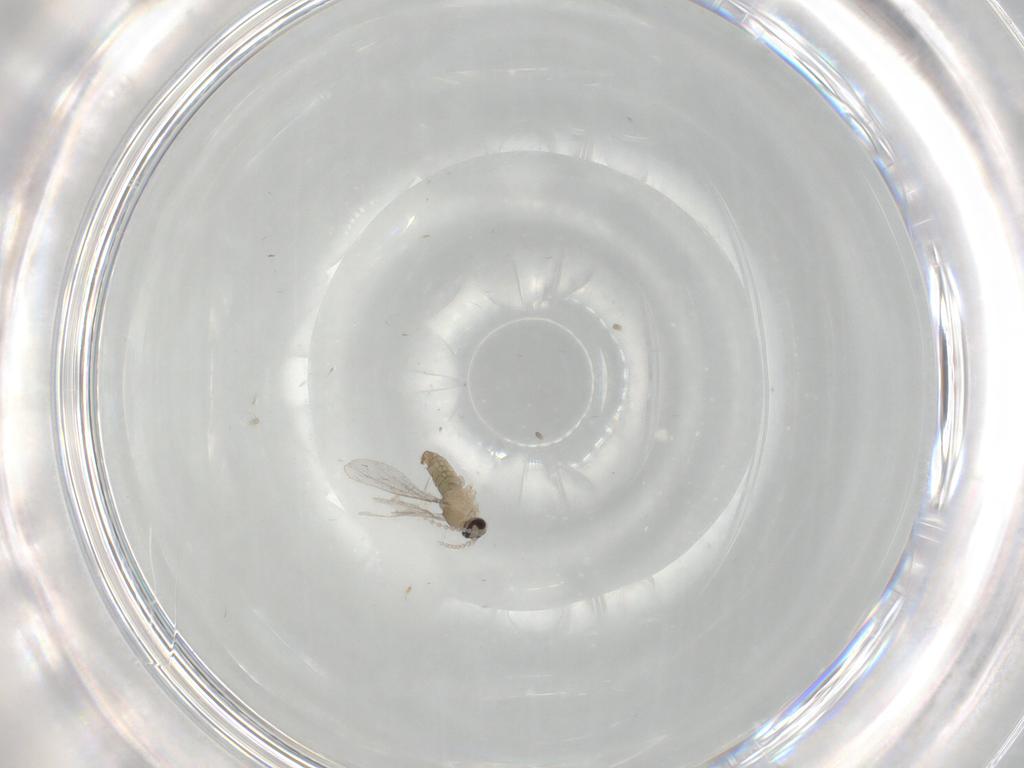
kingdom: Animalia
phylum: Arthropoda
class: Insecta
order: Diptera
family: Cecidomyiidae
